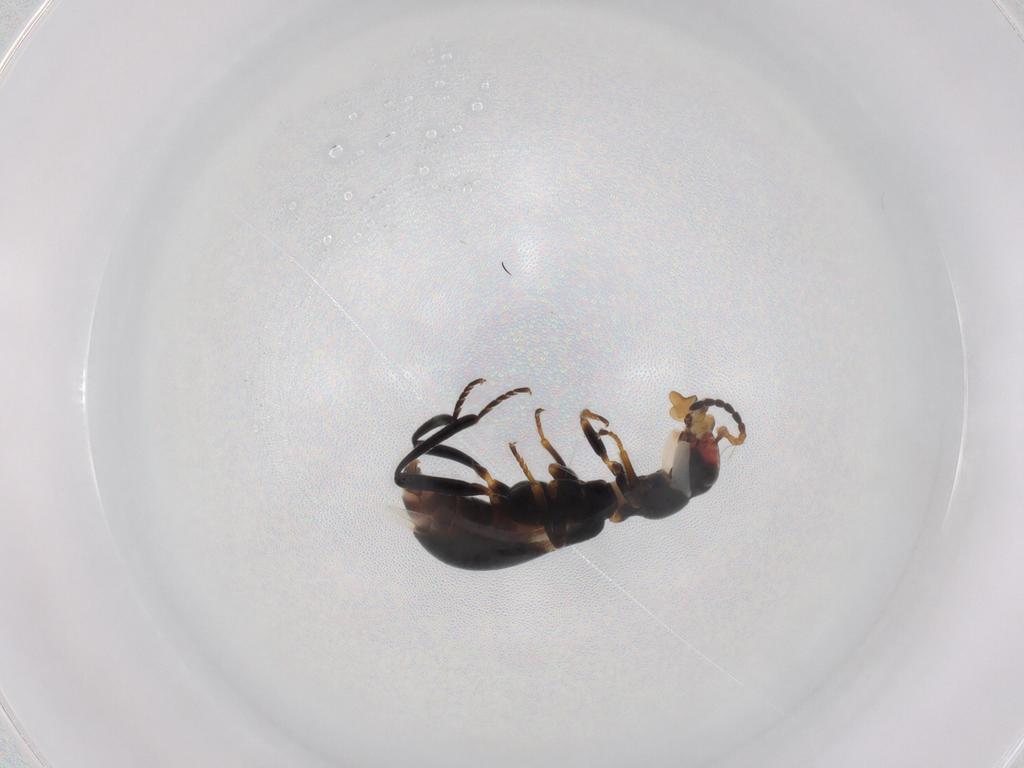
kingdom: Animalia
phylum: Arthropoda
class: Insecta
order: Coleoptera
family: Melyridae
